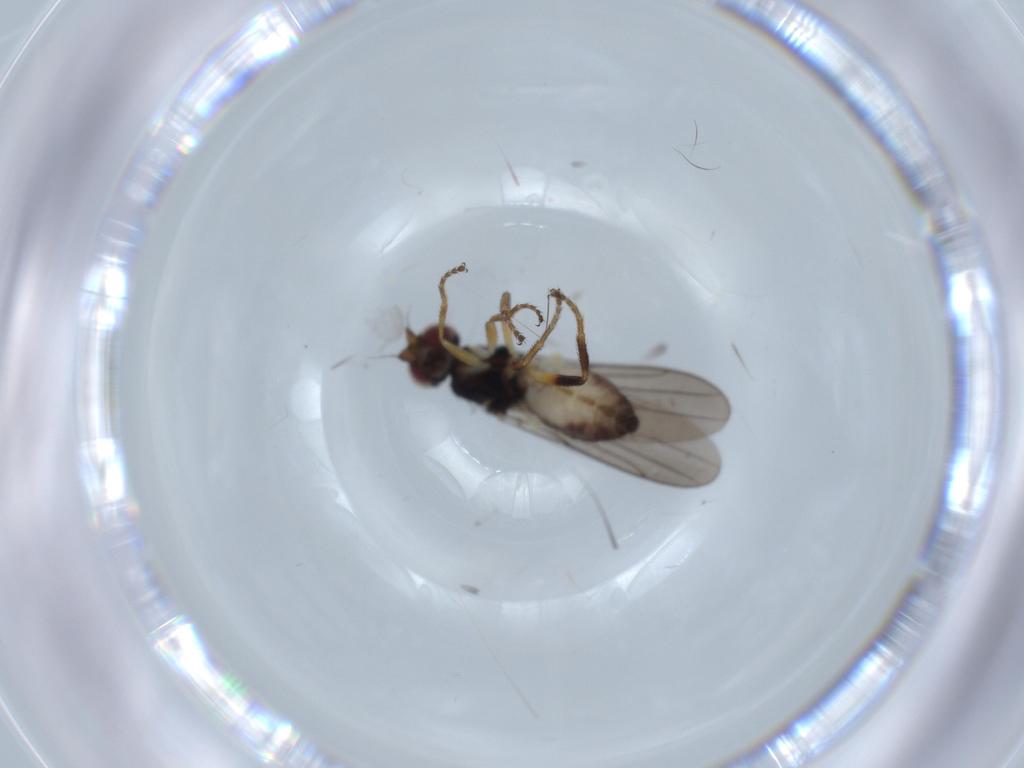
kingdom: Animalia
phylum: Arthropoda
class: Insecta
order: Diptera
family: Chloropidae
